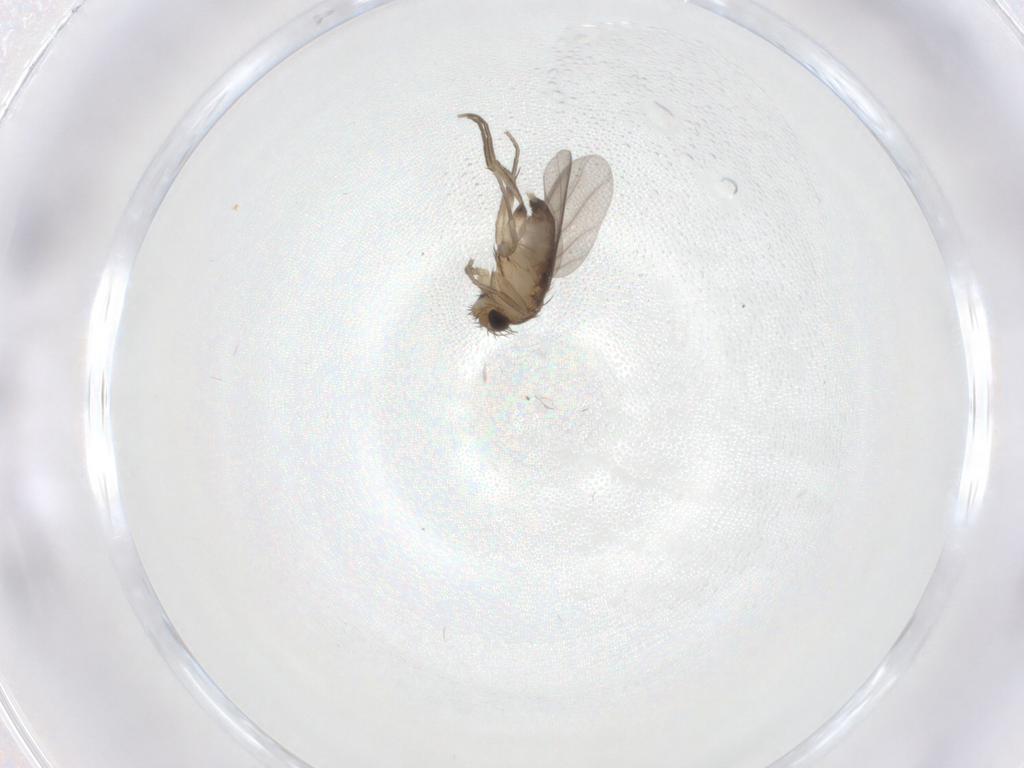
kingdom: Animalia
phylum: Arthropoda
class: Insecta
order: Diptera
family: Phoridae
